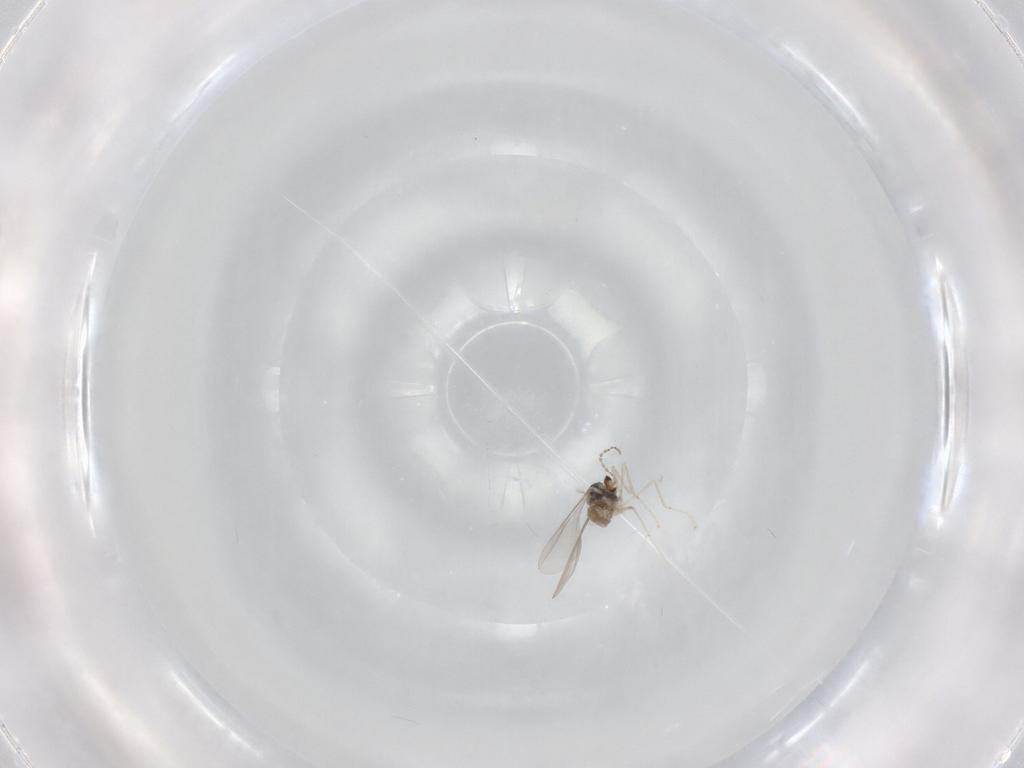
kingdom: Animalia
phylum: Arthropoda
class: Insecta
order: Diptera
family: Cecidomyiidae
